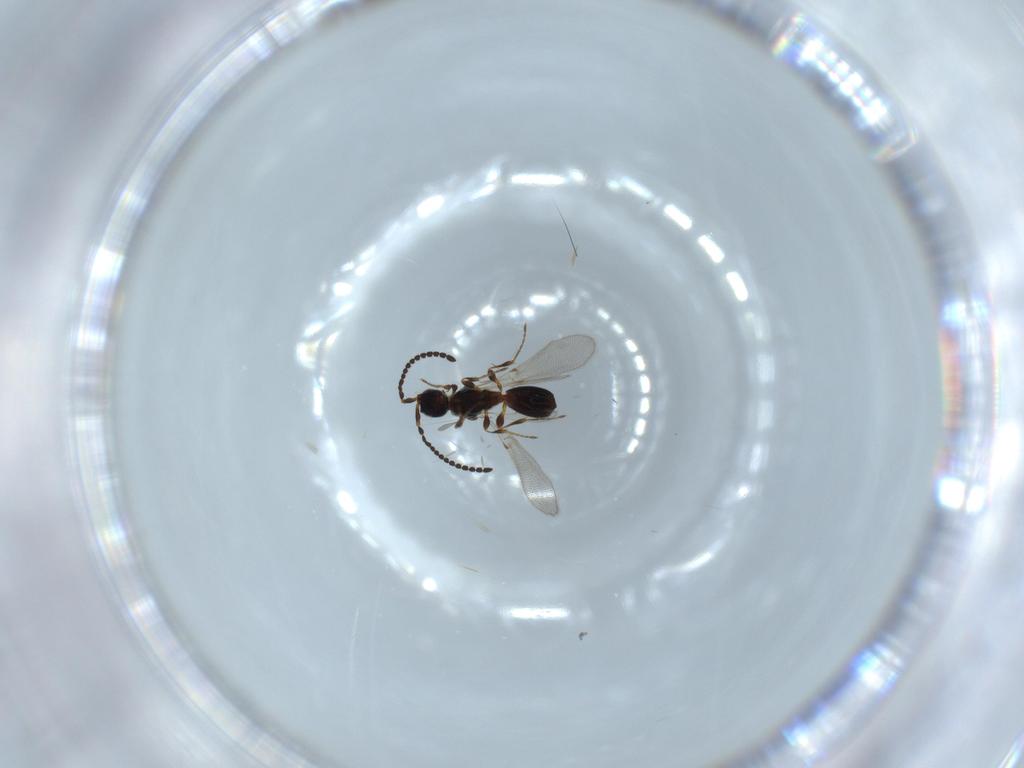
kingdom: Animalia
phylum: Arthropoda
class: Insecta
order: Hymenoptera
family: Diapriidae
